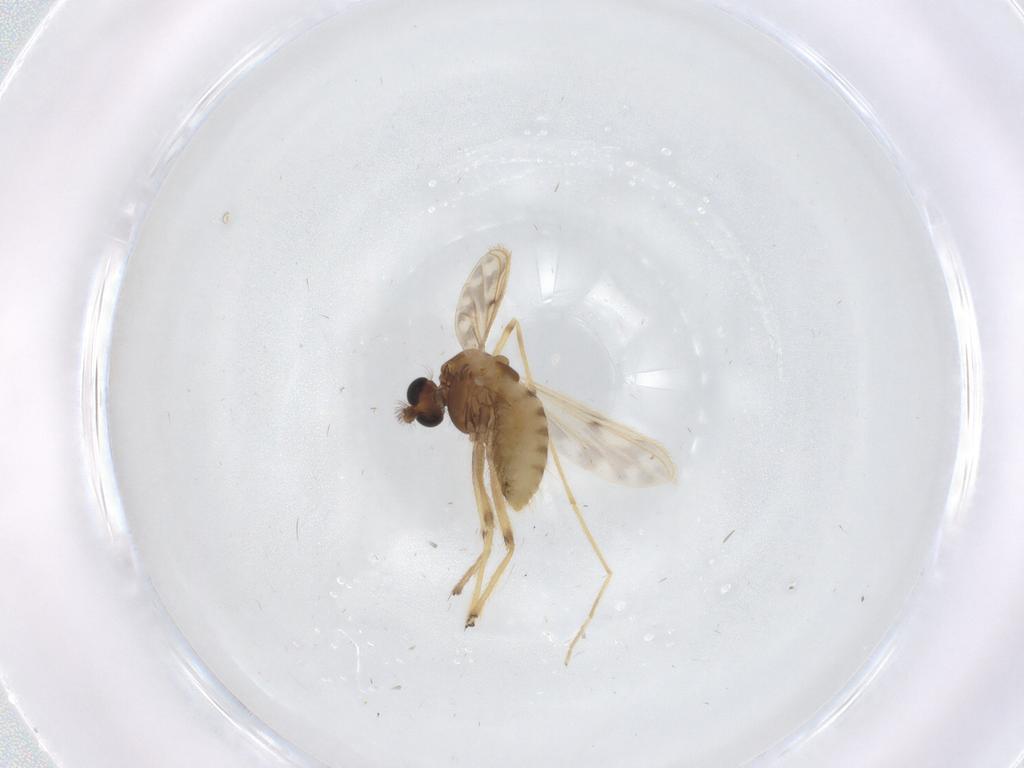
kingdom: Animalia
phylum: Arthropoda
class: Insecta
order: Diptera
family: Chironomidae
